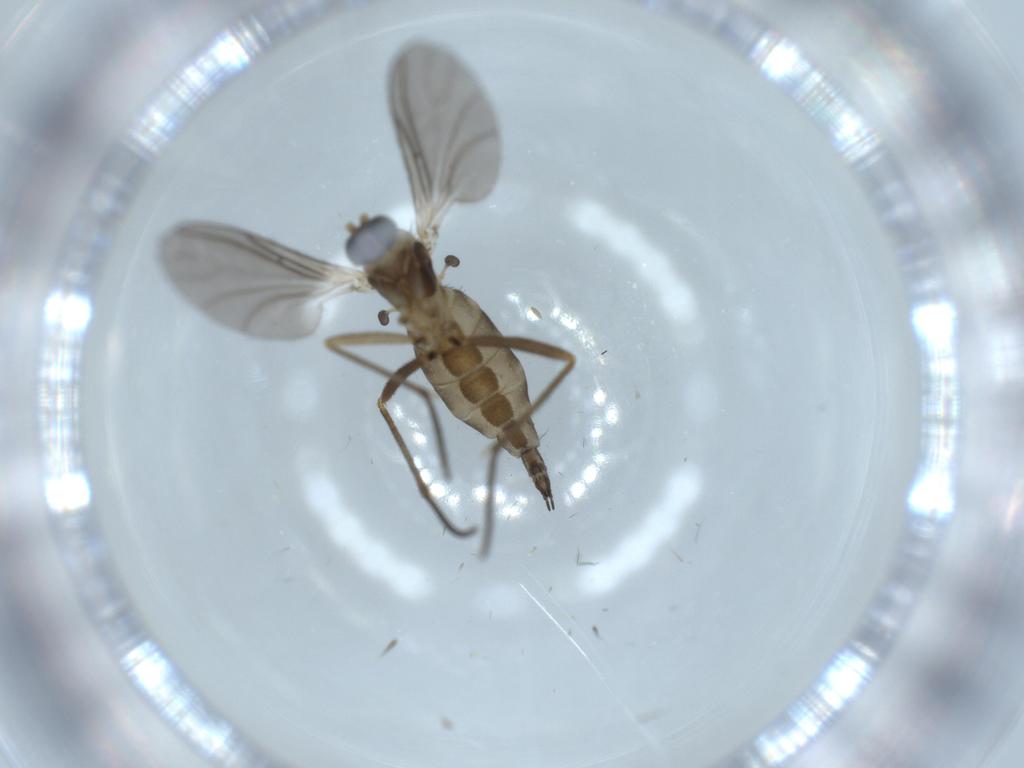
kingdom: Animalia
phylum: Arthropoda
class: Insecta
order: Diptera
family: Sciaridae
